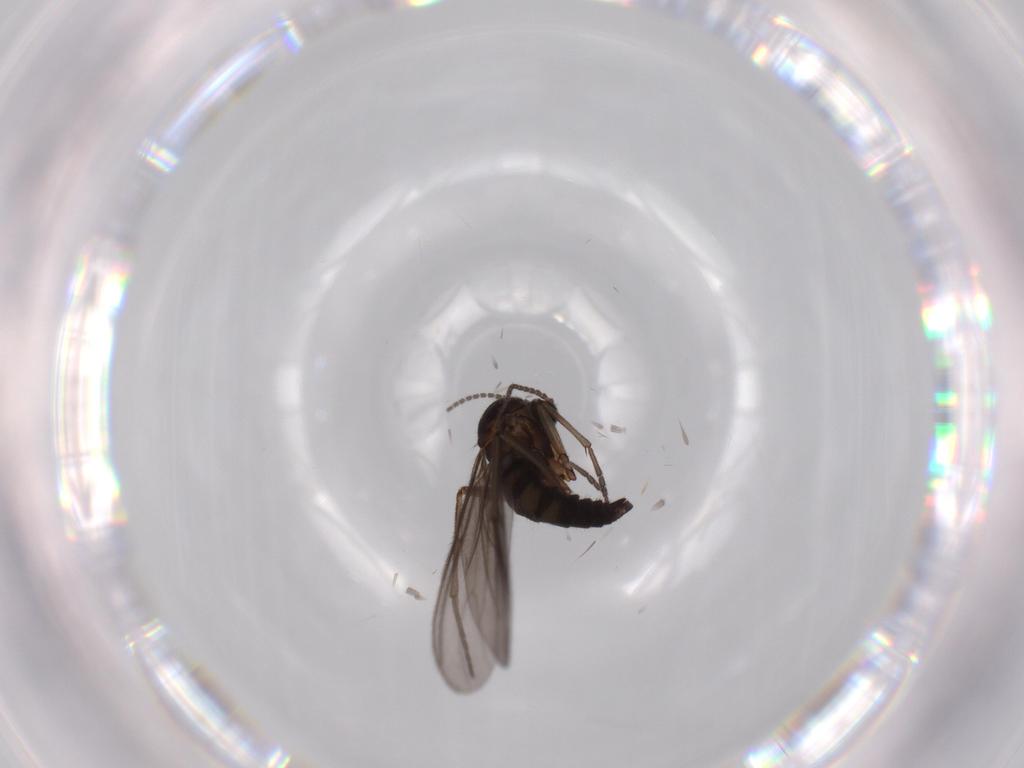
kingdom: Animalia
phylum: Arthropoda
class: Insecta
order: Diptera
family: Sciaridae
